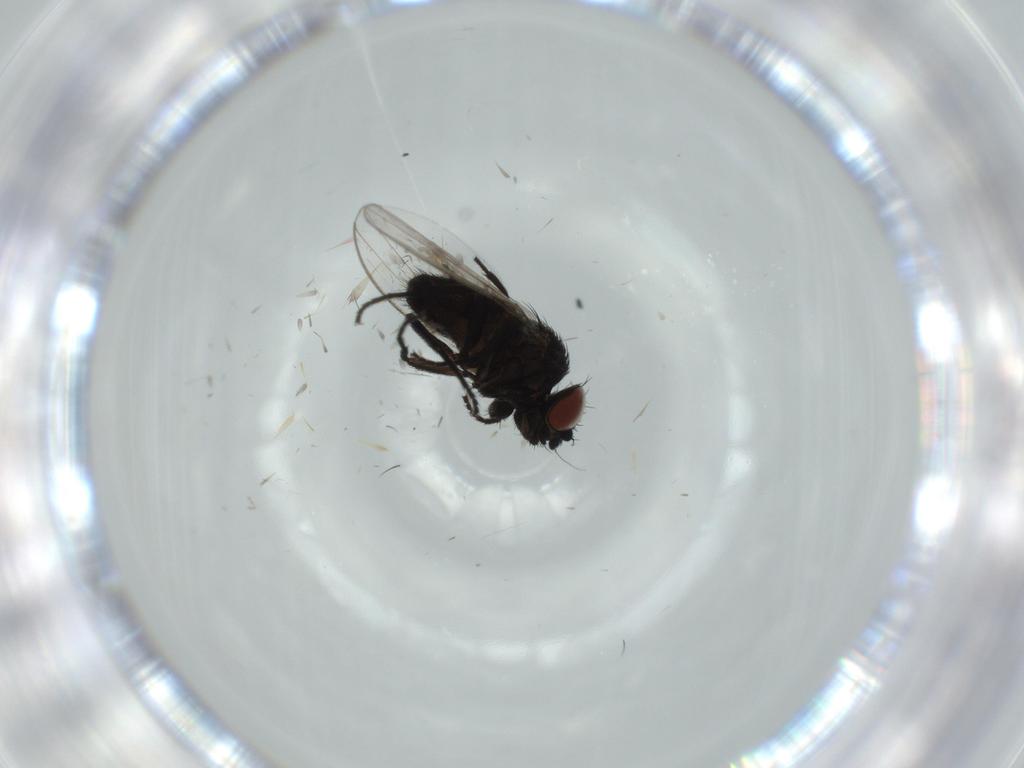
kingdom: Animalia
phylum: Arthropoda
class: Insecta
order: Diptera
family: Milichiidae
